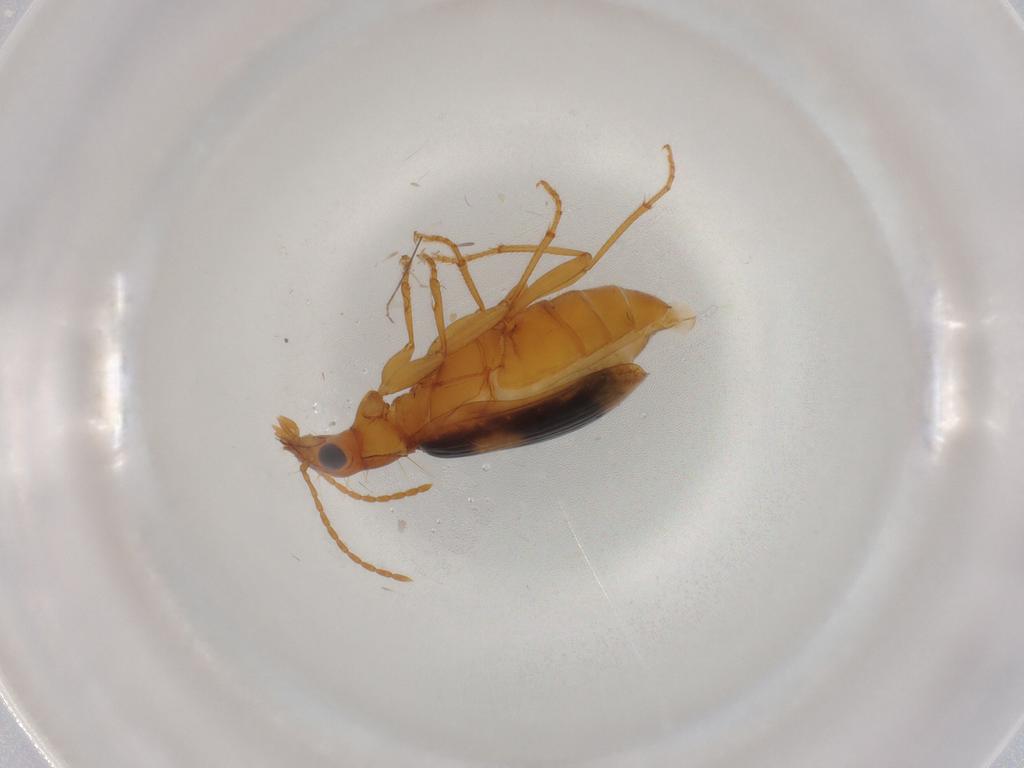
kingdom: Animalia
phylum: Arthropoda
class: Insecta
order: Coleoptera
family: Carabidae
